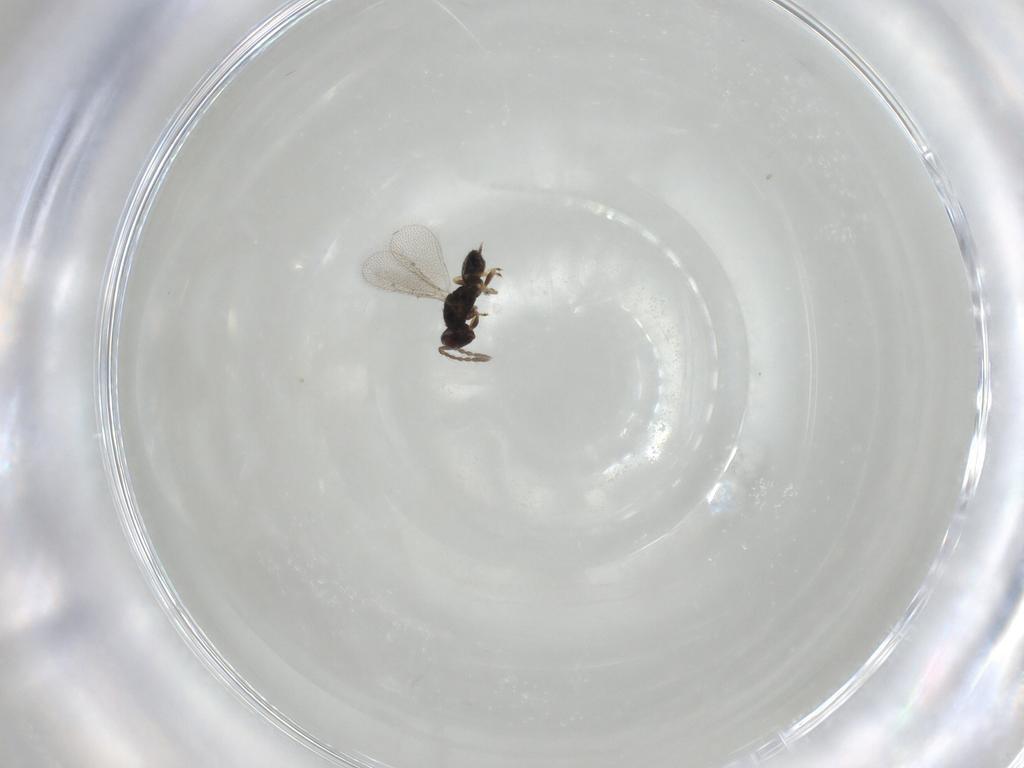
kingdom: Animalia
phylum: Arthropoda
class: Insecta
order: Hymenoptera
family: Eulophidae
